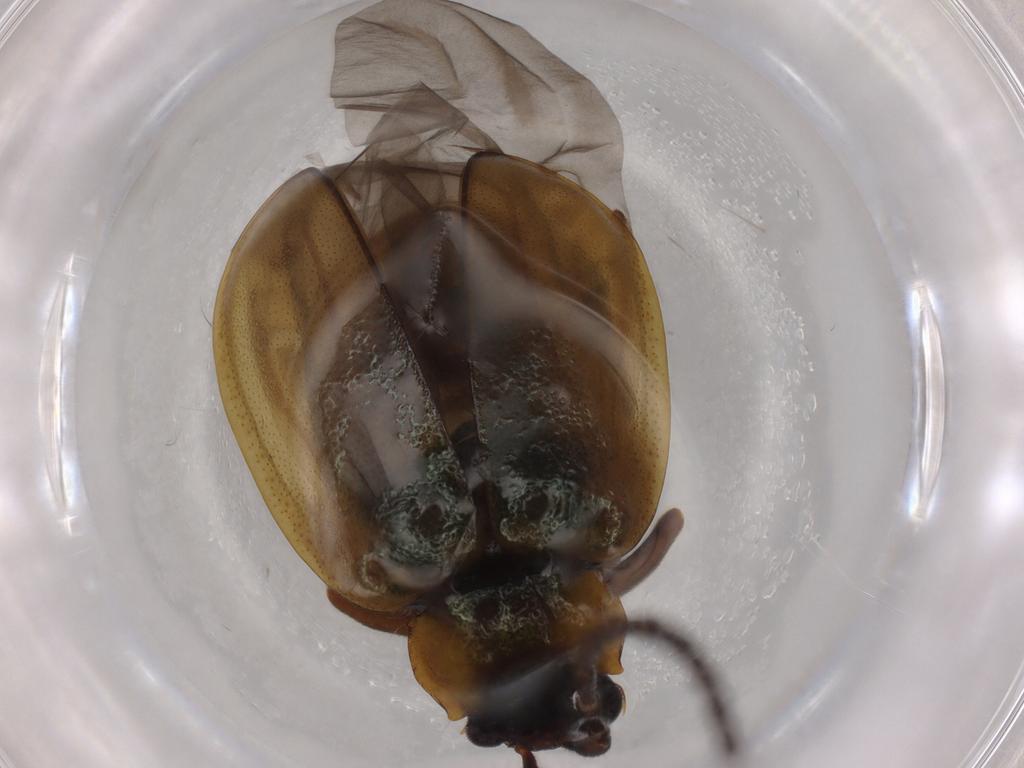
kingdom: Animalia
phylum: Arthropoda
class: Insecta
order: Coleoptera
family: Chrysomelidae
